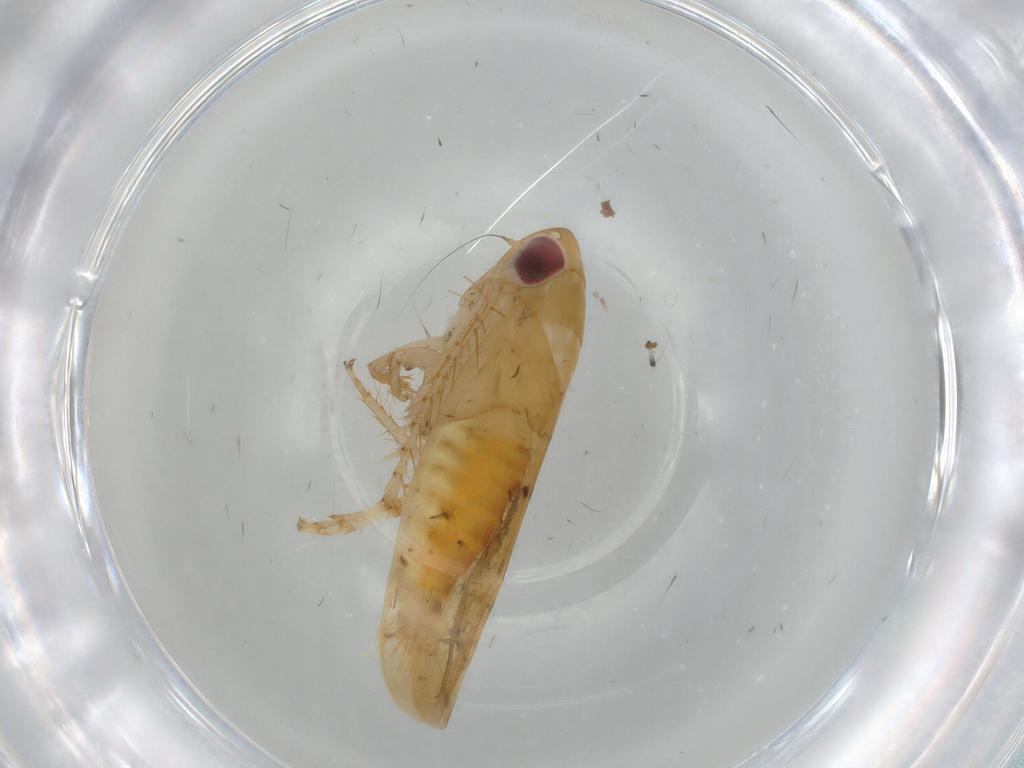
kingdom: Animalia
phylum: Arthropoda
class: Insecta
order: Hemiptera
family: Cicadellidae
